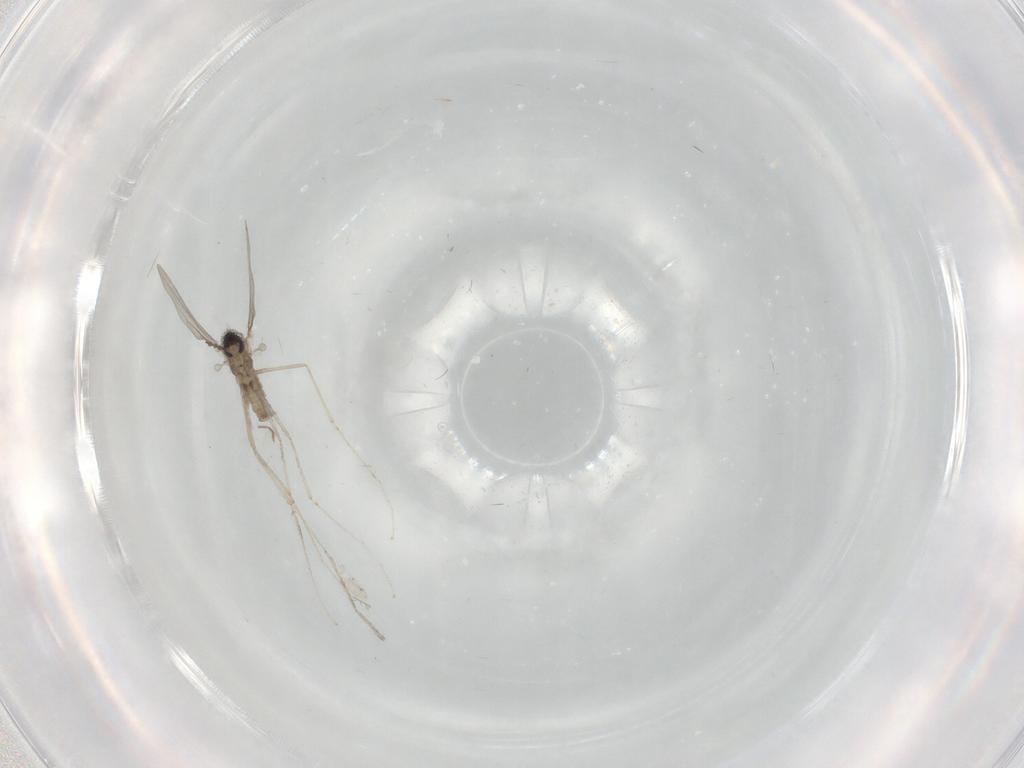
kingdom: Animalia
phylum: Arthropoda
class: Insecta
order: Diptera
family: Cecidomyiidae
